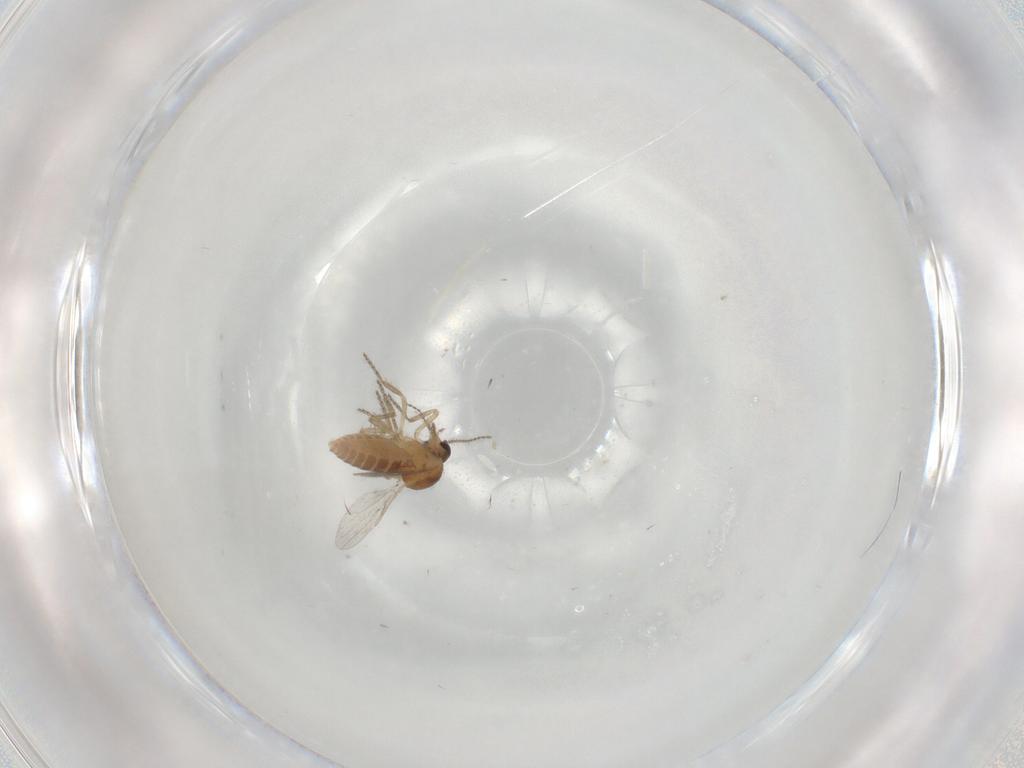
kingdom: Animalia
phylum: Arthropoda
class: Insecta
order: Diptera
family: Ceratopogonidae
